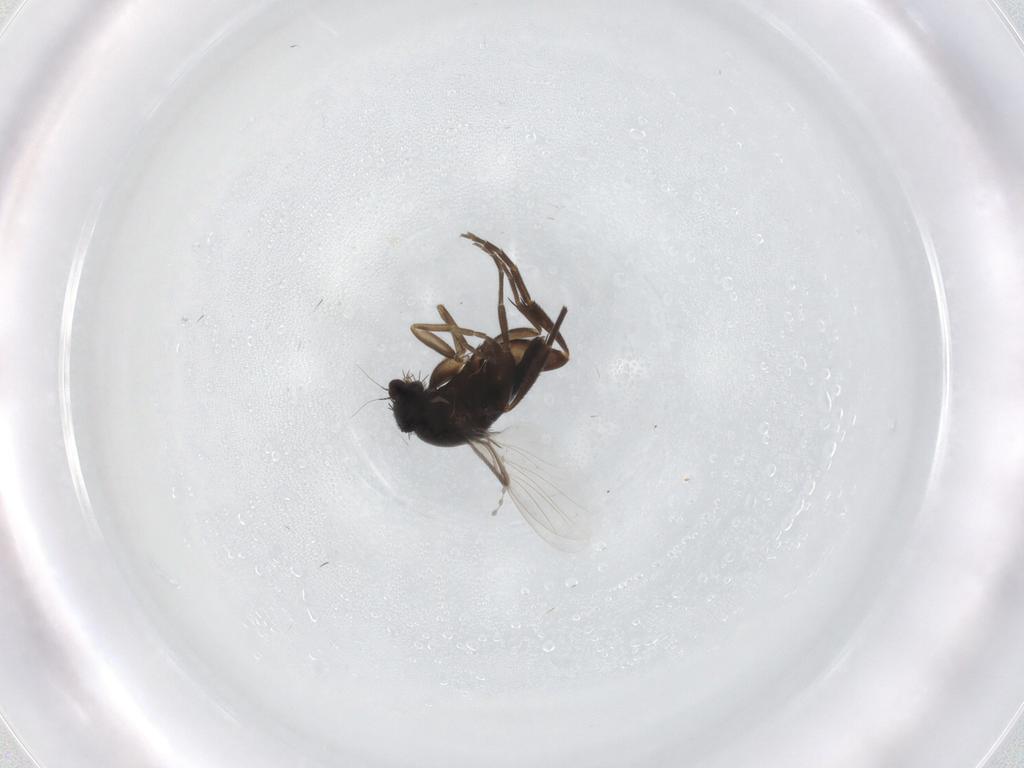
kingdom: Animalia
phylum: Arthropoda
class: Insecta
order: Diptera
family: Phoridae
